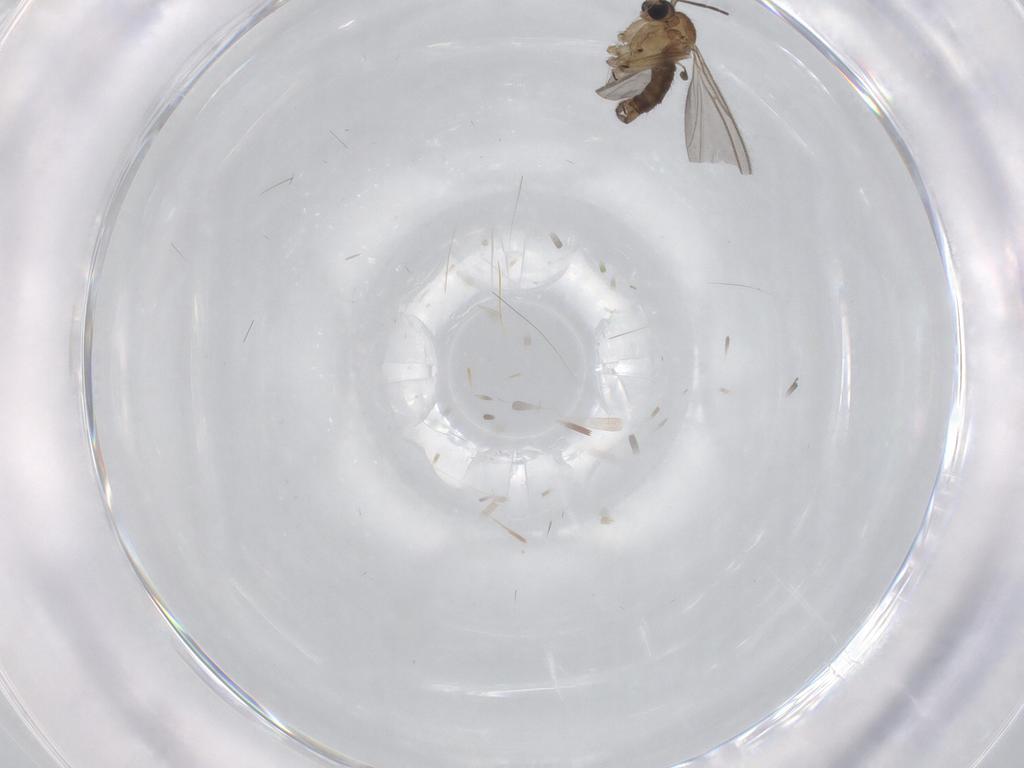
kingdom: Animalia
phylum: Arthropoda
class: Insecta
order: Diptera
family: Sciaridae
